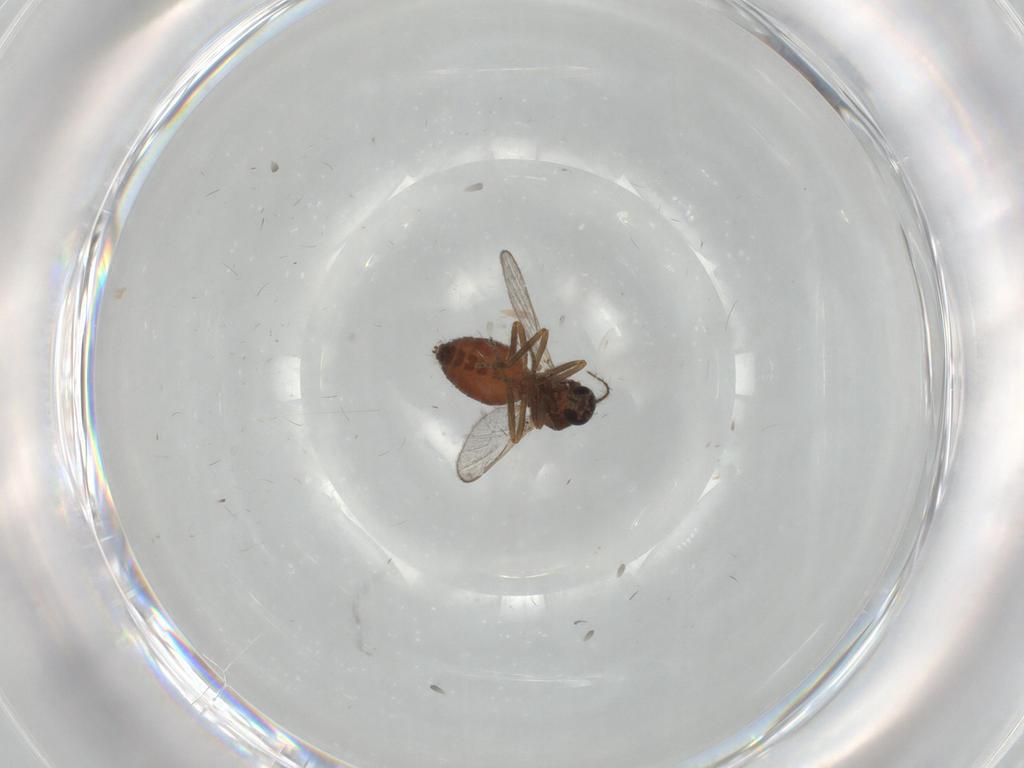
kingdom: Animalia
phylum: Arthropoda
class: Insecta
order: Diptera
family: Ceratopogonidae
